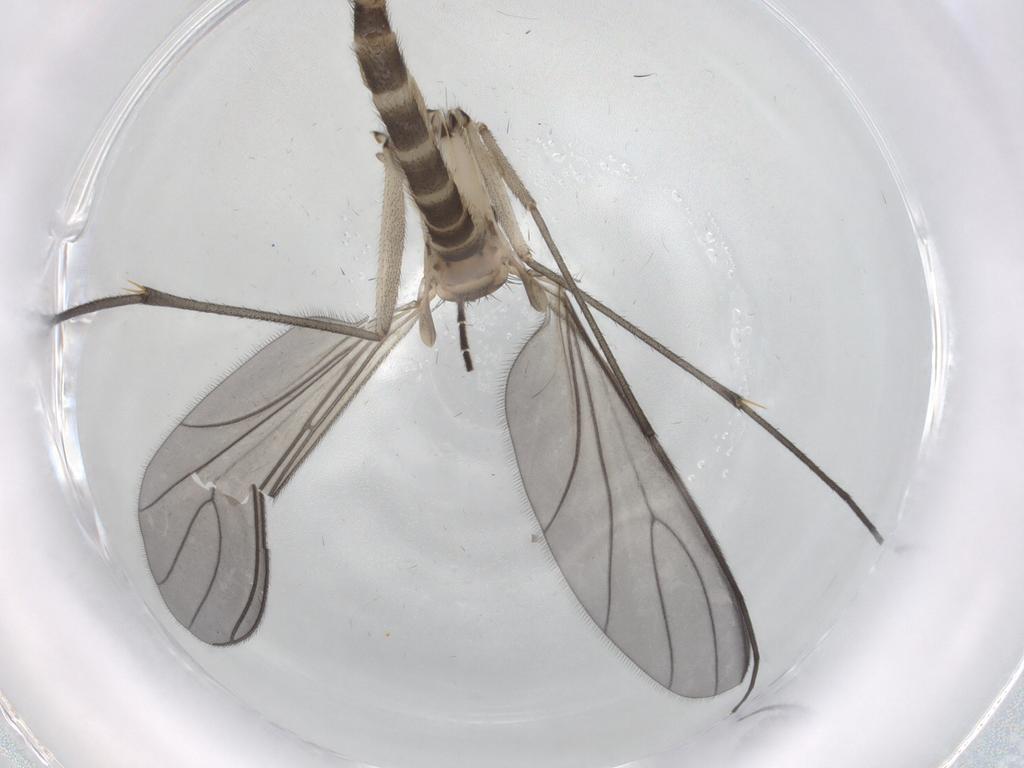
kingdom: Animalia
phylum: Arthropoda
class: Insecta
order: Diptera
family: Sciaridae
